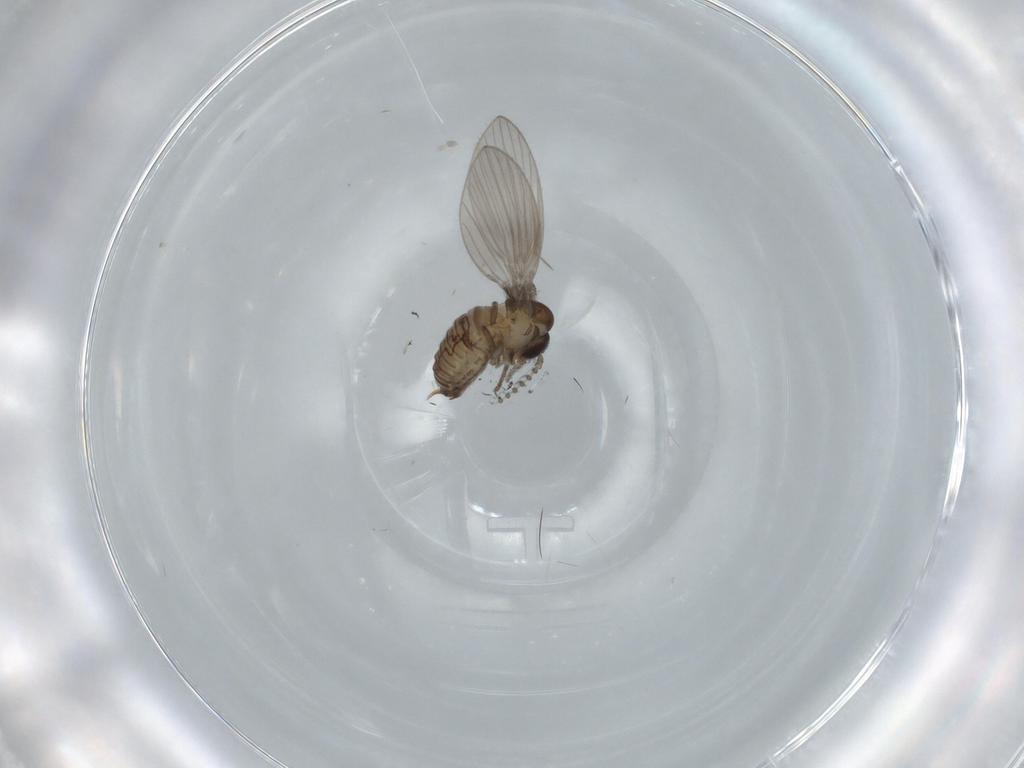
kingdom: Animalia
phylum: Arthropoda
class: Insecta
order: Diptera
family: Psychodidae
